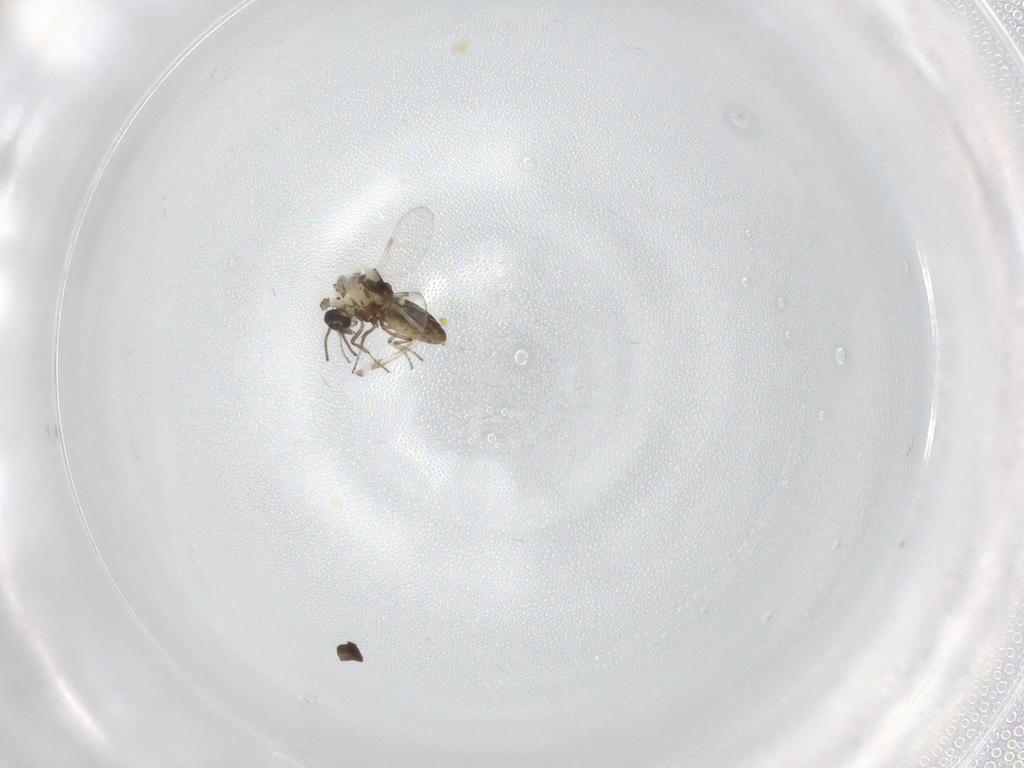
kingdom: Animalia
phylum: Arthropoda
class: Insecta
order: Diptera
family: Ceratopogonidae
